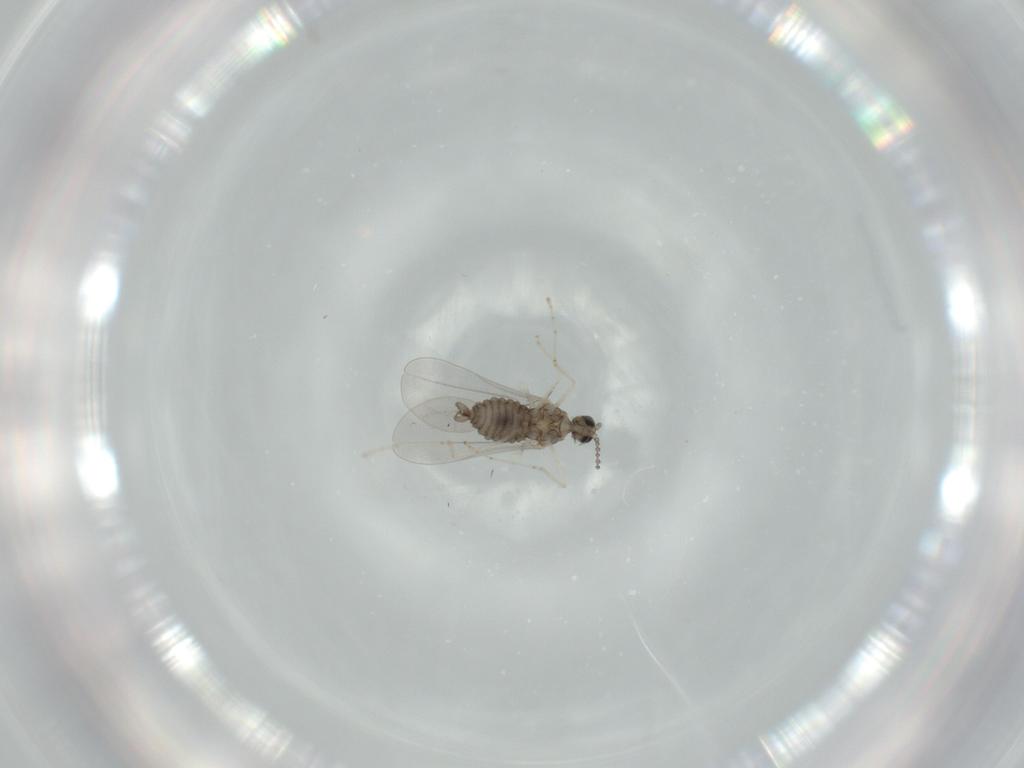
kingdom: Animalia
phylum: Arthropoda
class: Insecta
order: Diptera
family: Cecidomyiidae
